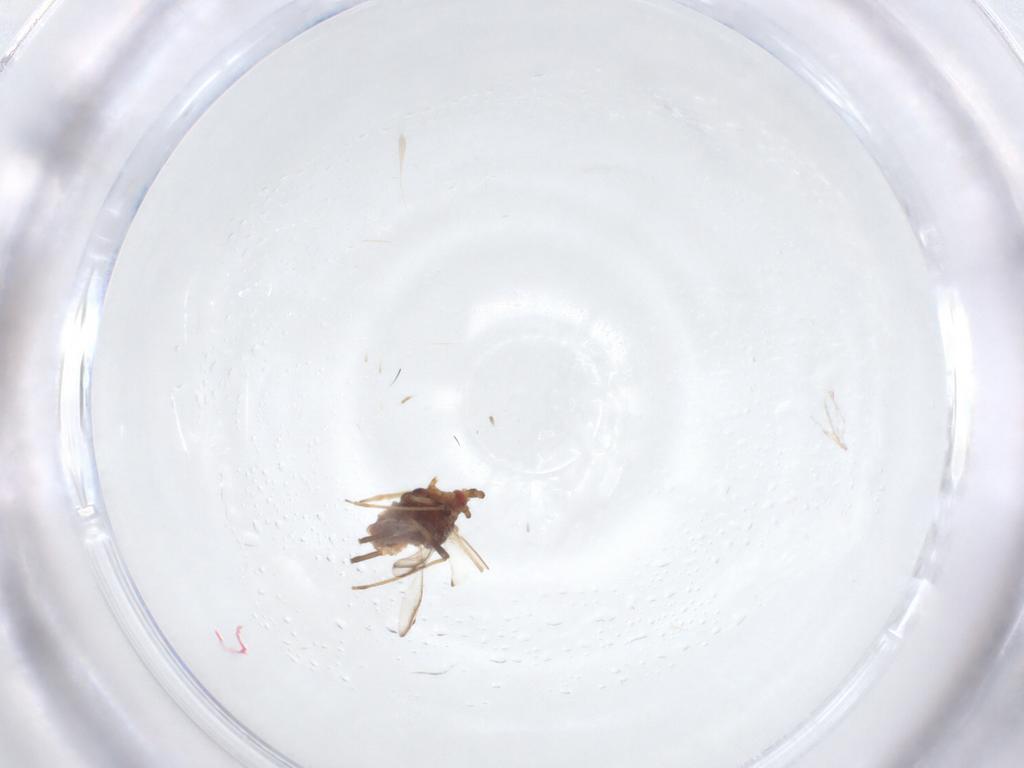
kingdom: Animalia
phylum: Arthropoda
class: Insecta
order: Hemiptera
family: Aphididae
